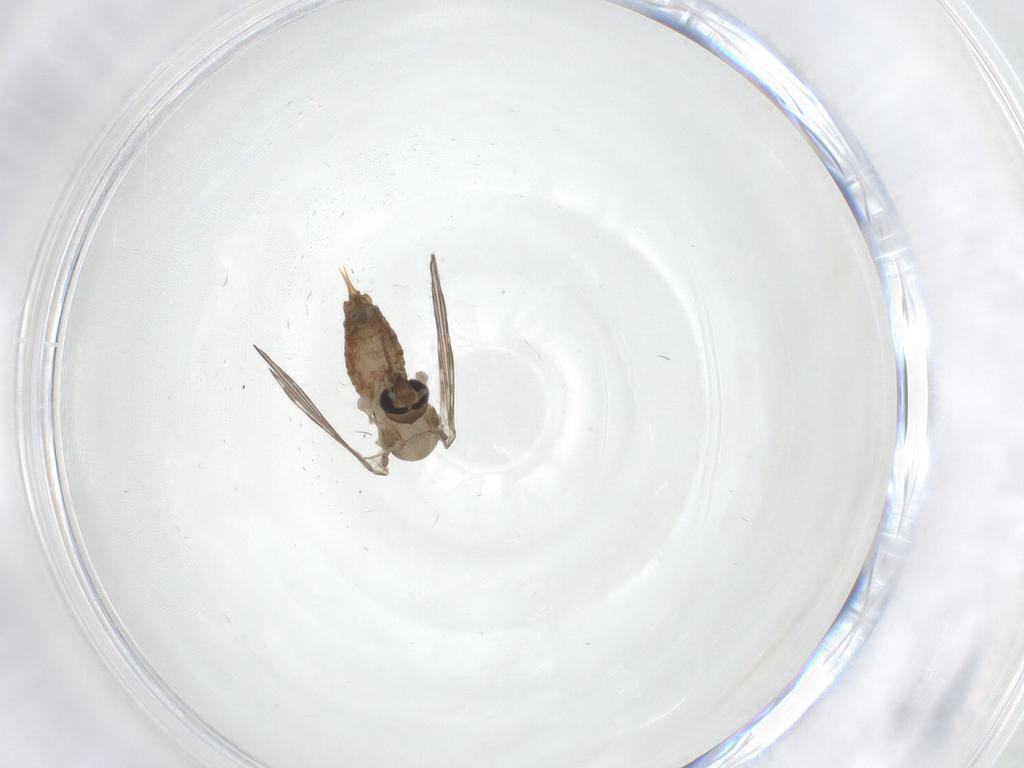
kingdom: Animalia
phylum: Arthropoda
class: Insecta
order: Diptera
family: Psychodidae
